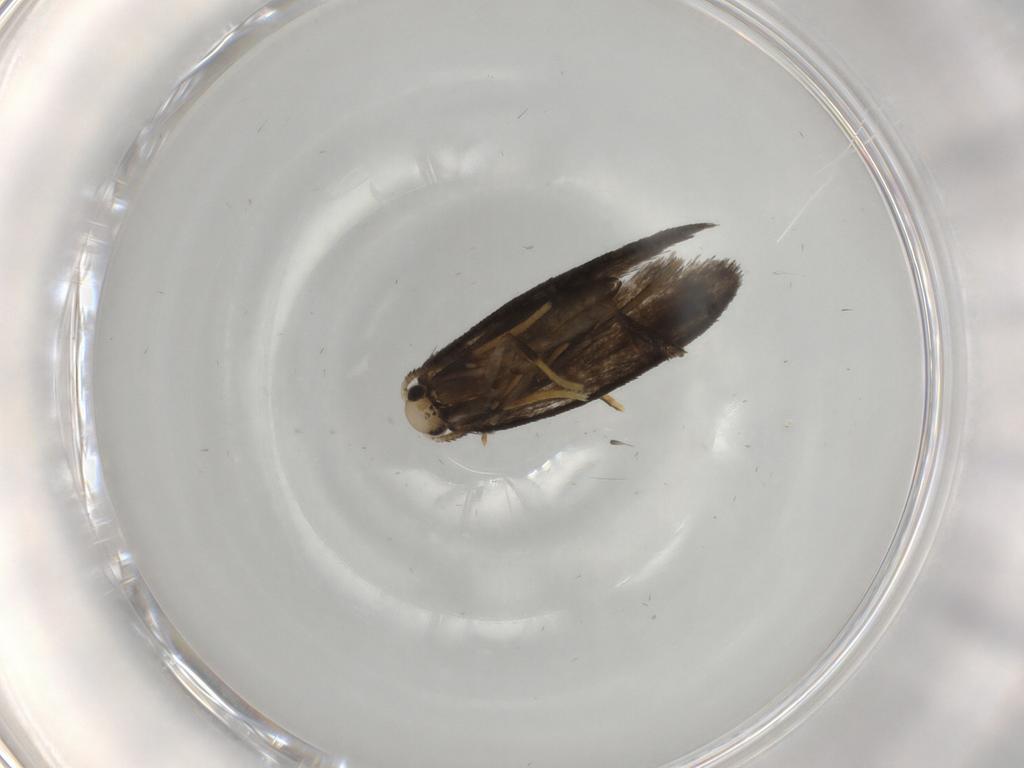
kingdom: Animalia
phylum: Arthropoda
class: Insecta
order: Lepidoptera
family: Psychidae
